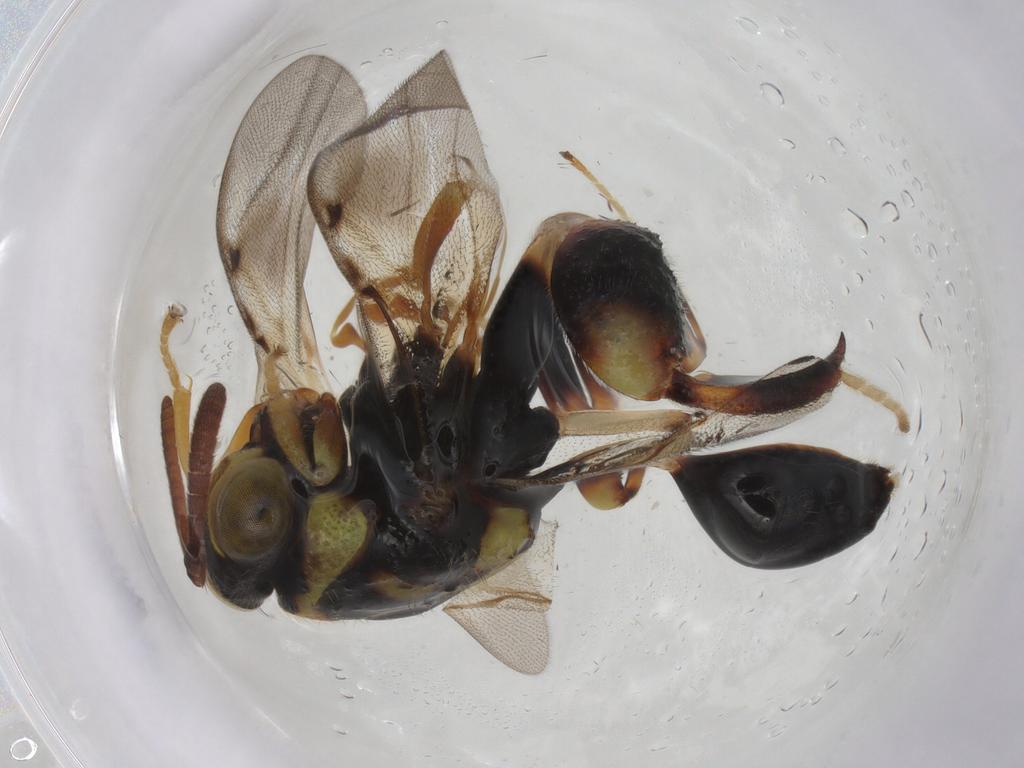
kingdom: Animalia
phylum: Arthropoda
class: Insecta
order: Hymenoptera
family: Chalcididae
